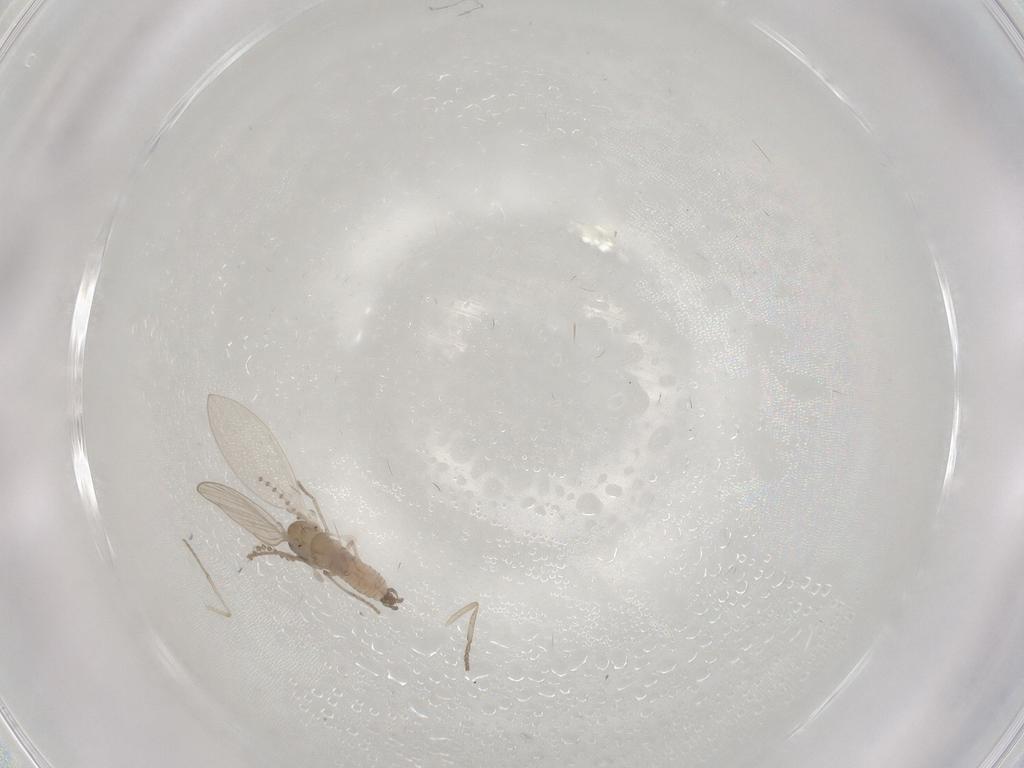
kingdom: Animalia
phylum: Arthropoda
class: Insecta
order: Diptera
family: Psychodidae
